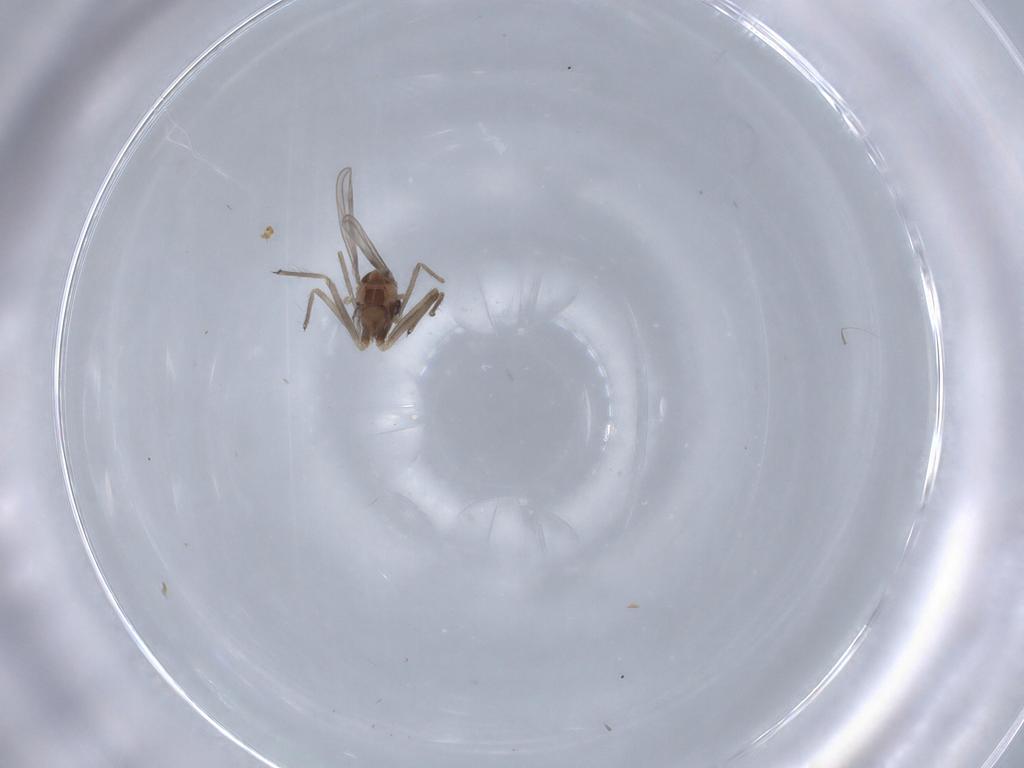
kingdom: Animalia
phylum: Arthropoda
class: Insecta
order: Diptera
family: Chironomidae
